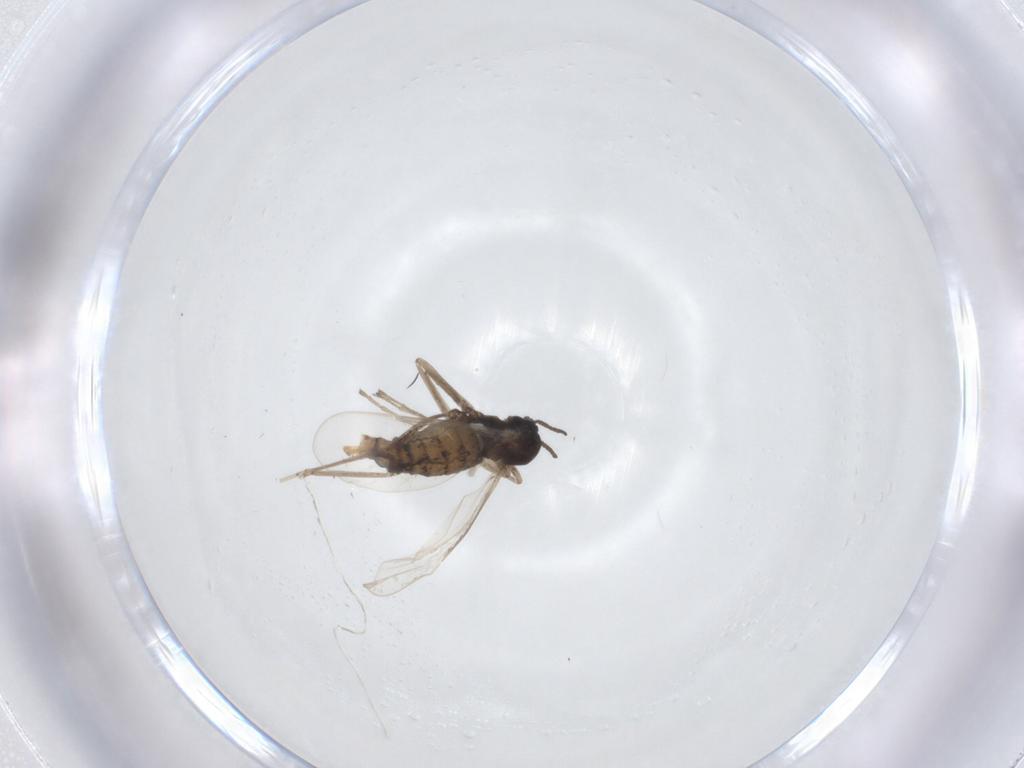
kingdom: Animalia
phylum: Arthropoda
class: Insecta
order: Diptera
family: Cecidomyiidae
